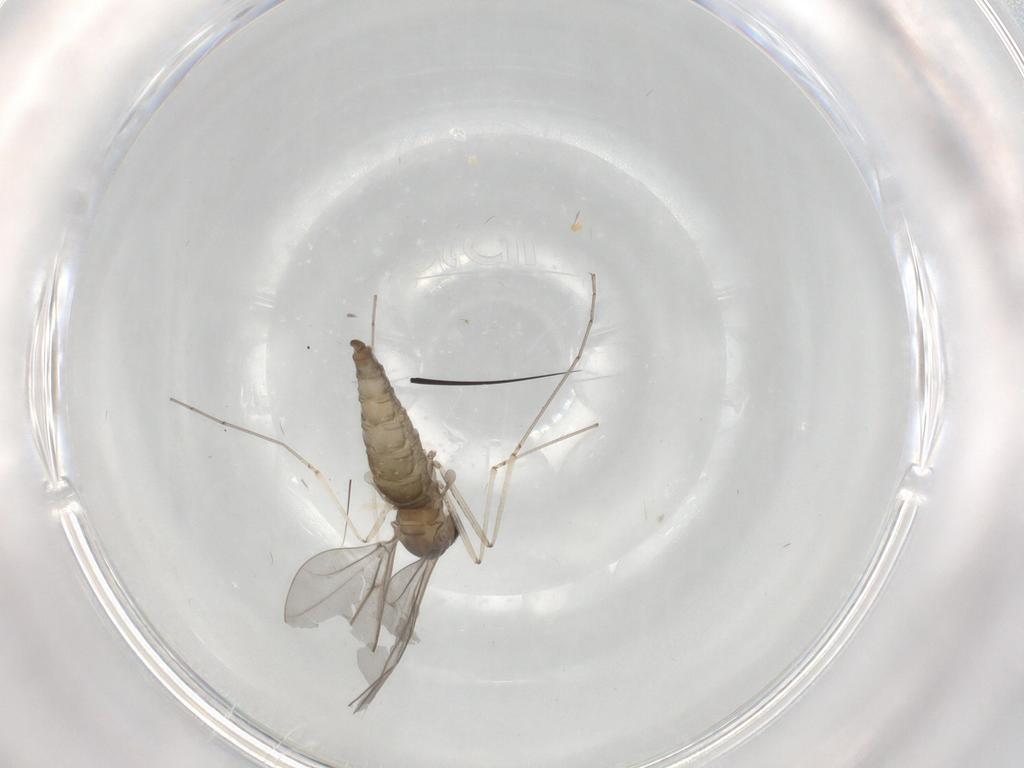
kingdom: Animalia
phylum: Arthropoda
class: Insecta
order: Diptera
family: Cecidomyiidae
